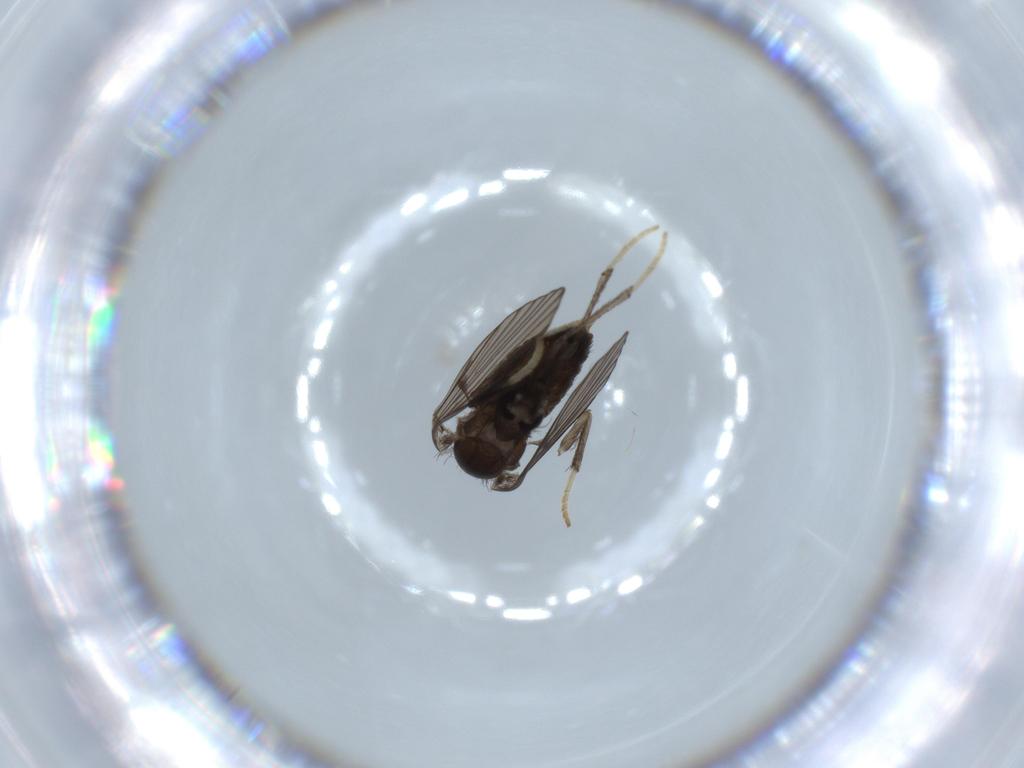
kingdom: Animalia
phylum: Arthropoda
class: Insecta
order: Diptera
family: Psychodidae
